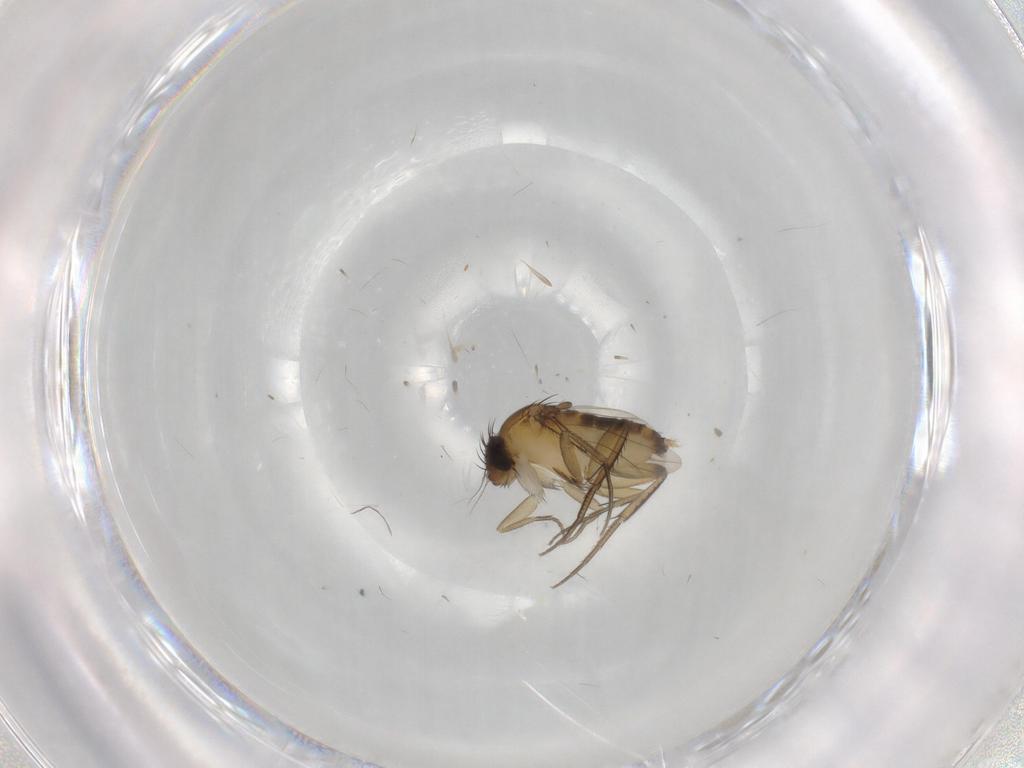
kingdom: Animalia
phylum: Arthropoda
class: Insecta
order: Diptera
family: Phoridae
